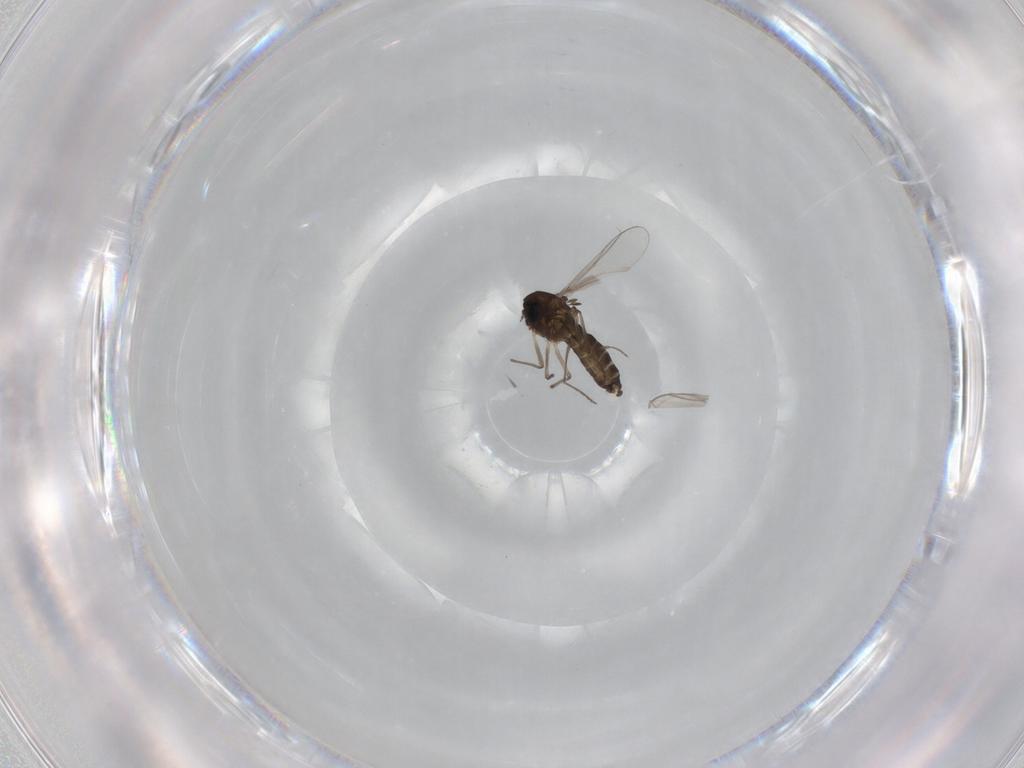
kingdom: Animalia
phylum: Arthropoda
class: Insecta
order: Diptera
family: Chironomidae
